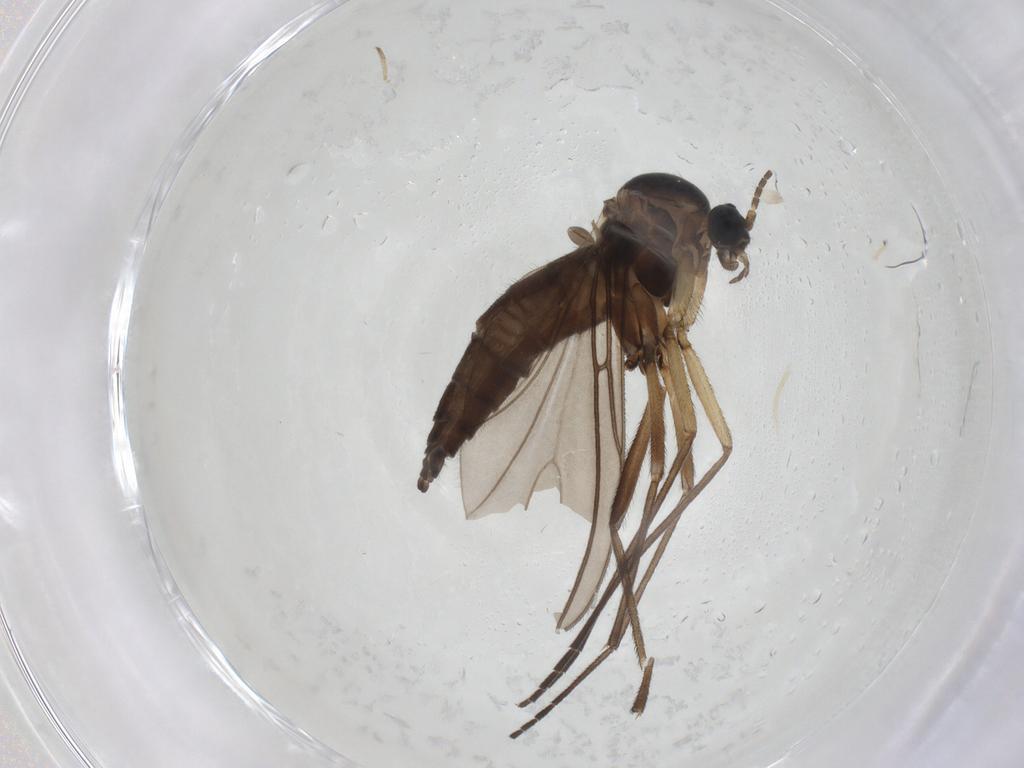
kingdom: Animalia
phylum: Arthropoda
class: Insecta
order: Diptera
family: Sciaridae
